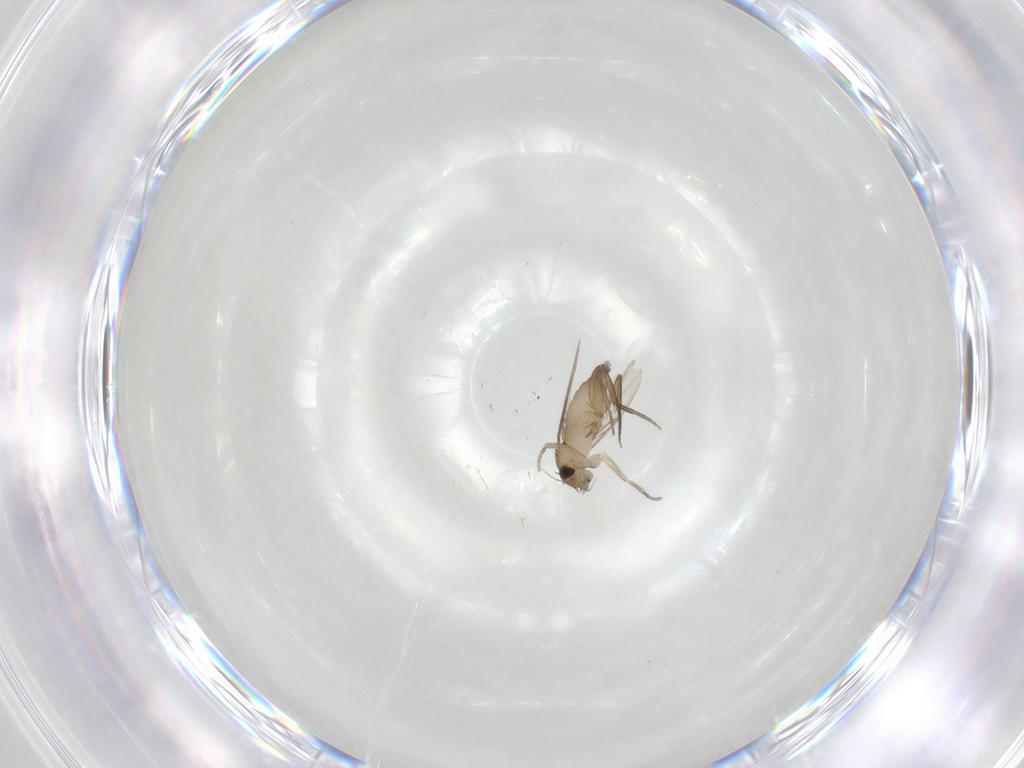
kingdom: Animalia
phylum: Arthropoda
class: Insecta
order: Diptera
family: Phoridae
